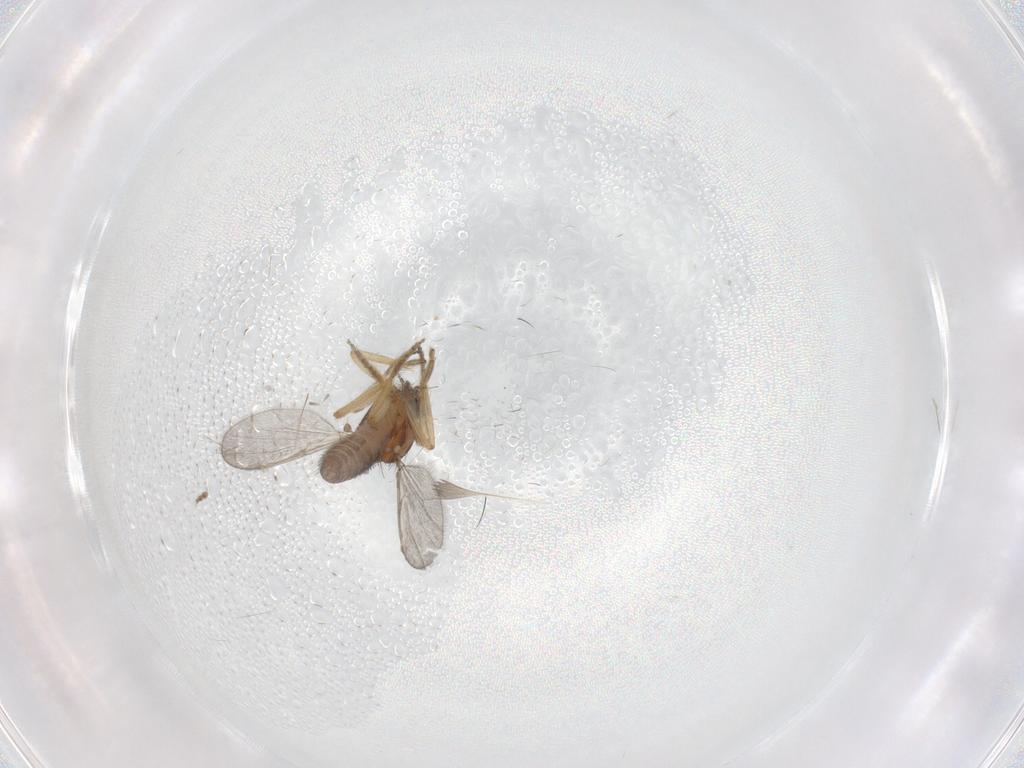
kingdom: Animalia
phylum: Arthropoda
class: Insecta
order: Diptera
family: Ceratopogonidae
